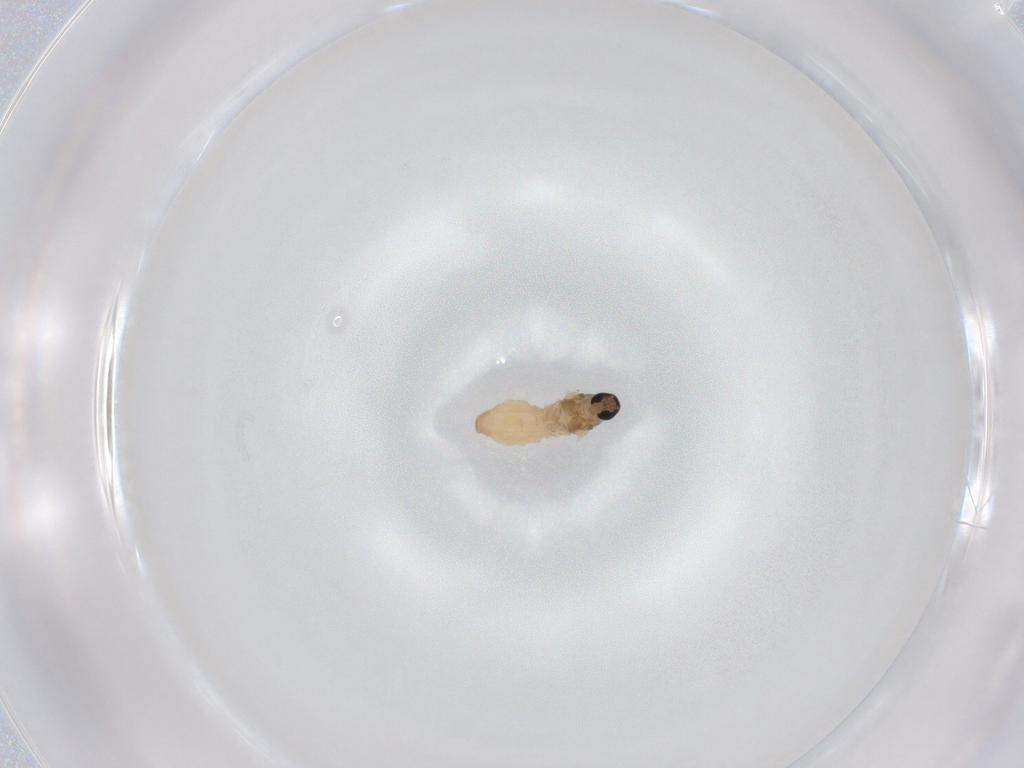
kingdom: Animalia
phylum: Arthropoda
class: Insecta
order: Diptera
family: Cecidomyiidae
